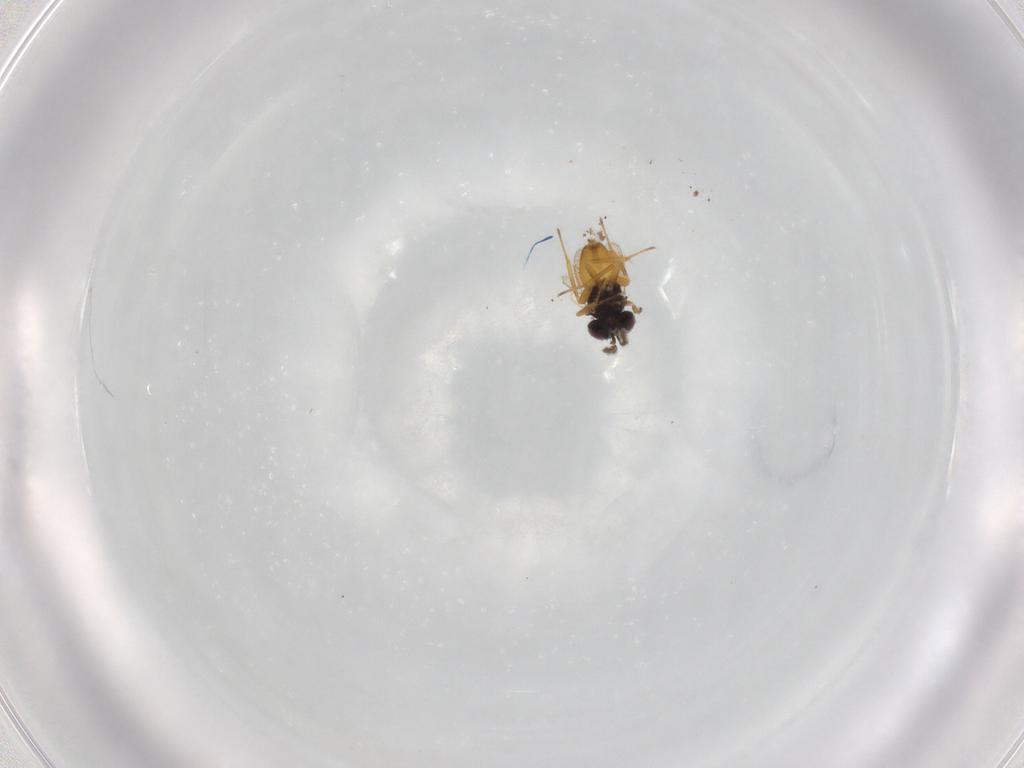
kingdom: Animalia
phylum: Arthropoda
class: Insecta
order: Hymenoptera
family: Aphelinidae
